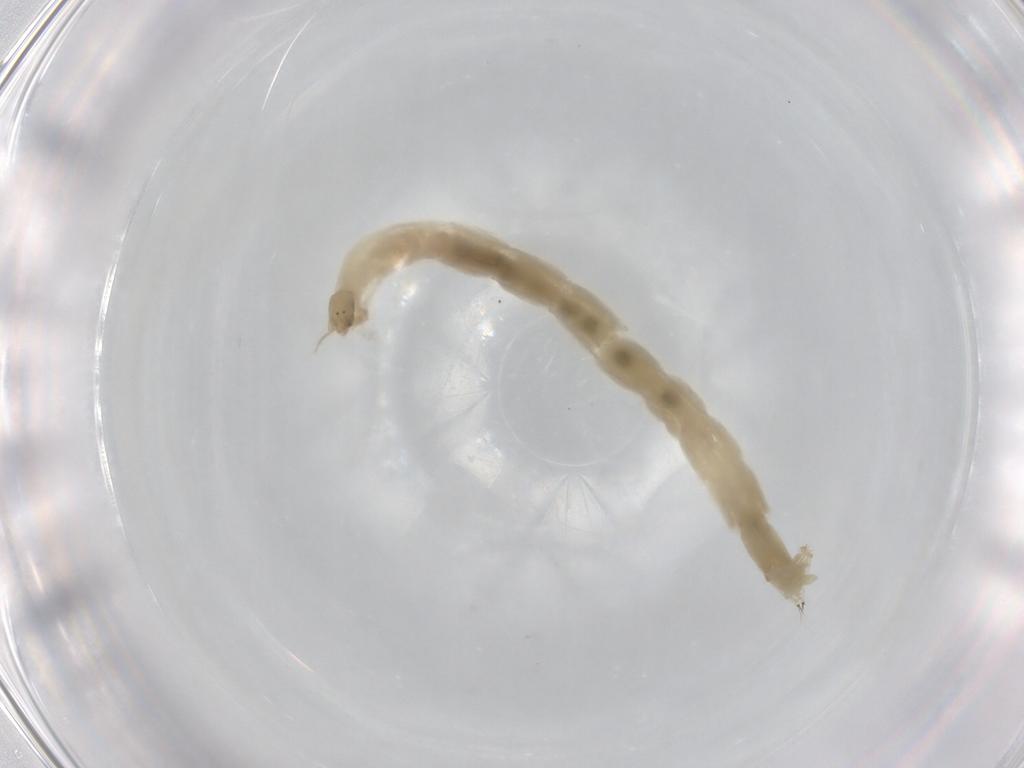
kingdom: Animalia
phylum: Arthropoda
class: Insecta
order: Diptera
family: Chironomidae
